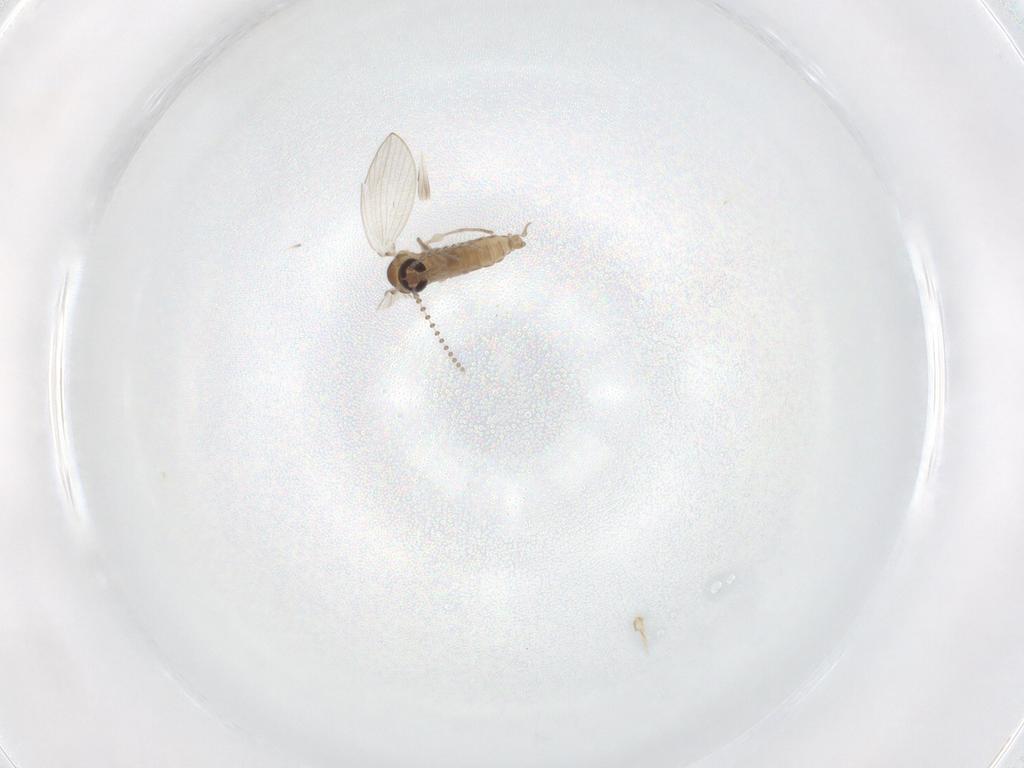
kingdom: Animalia
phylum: Arthropoda
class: Insecta
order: Diptera
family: Psychodidae
